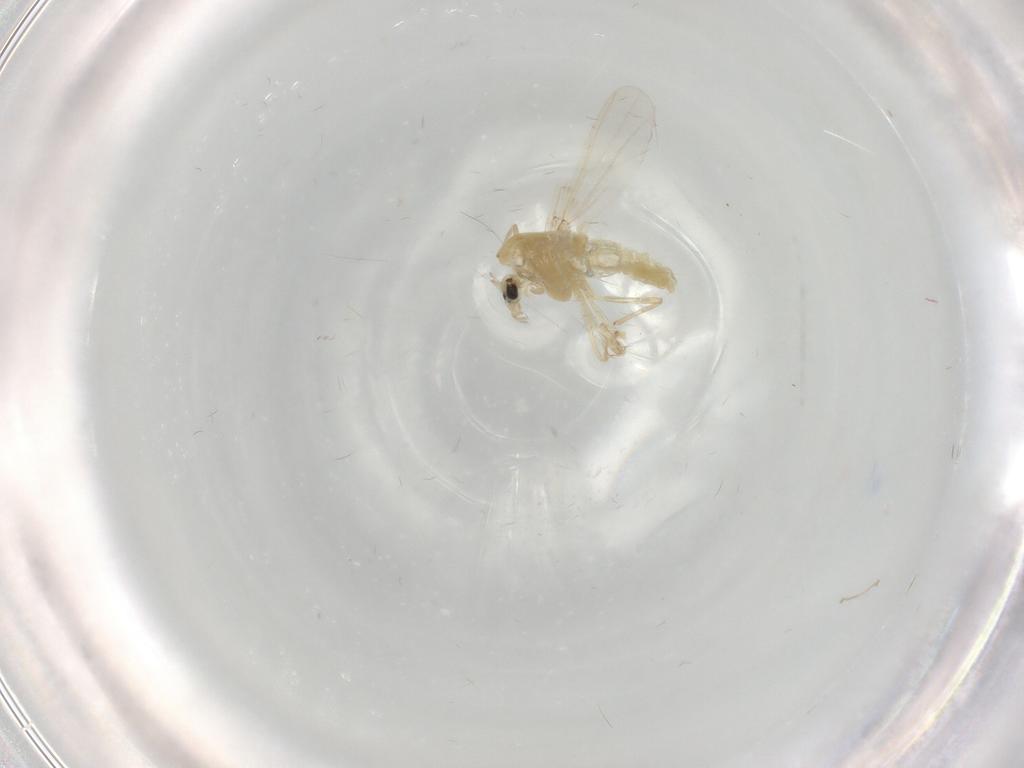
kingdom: Animalia
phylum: Arthropoda
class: Insecta
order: Diptera
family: Chironomidae
